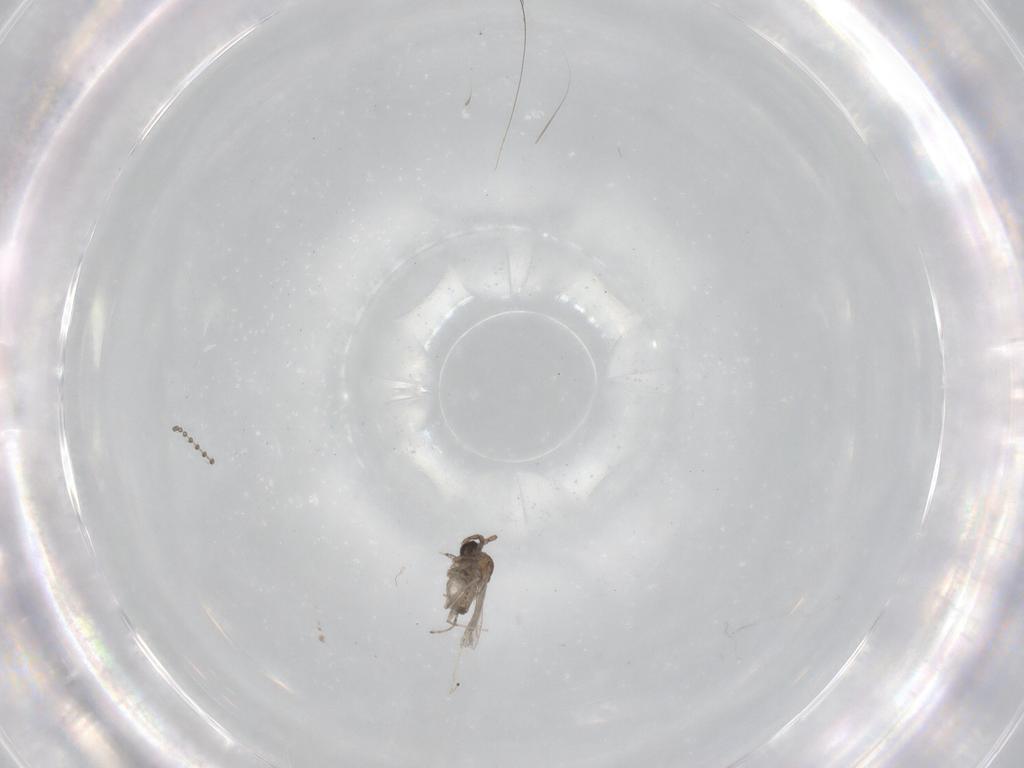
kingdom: Animalia
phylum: Arthropoda
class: Insecta
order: Diptera
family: Cecidomyiidae
